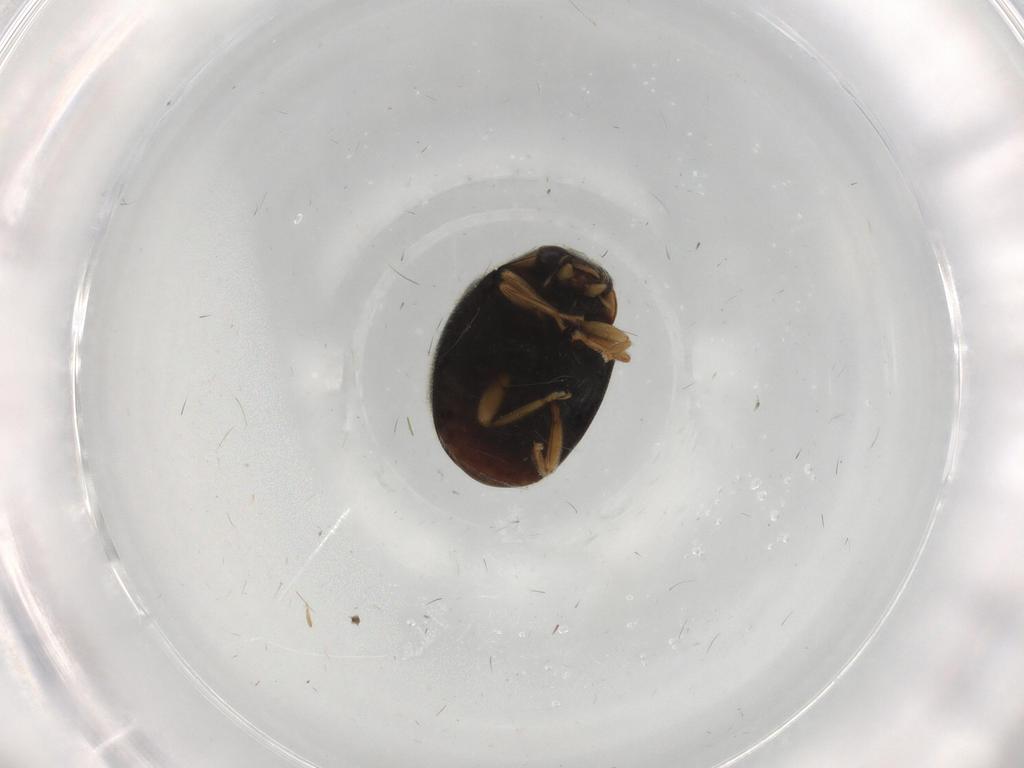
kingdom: Animalia
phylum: Arthropoda
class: Insecta
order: Coleoptera
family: Coccinellidae
